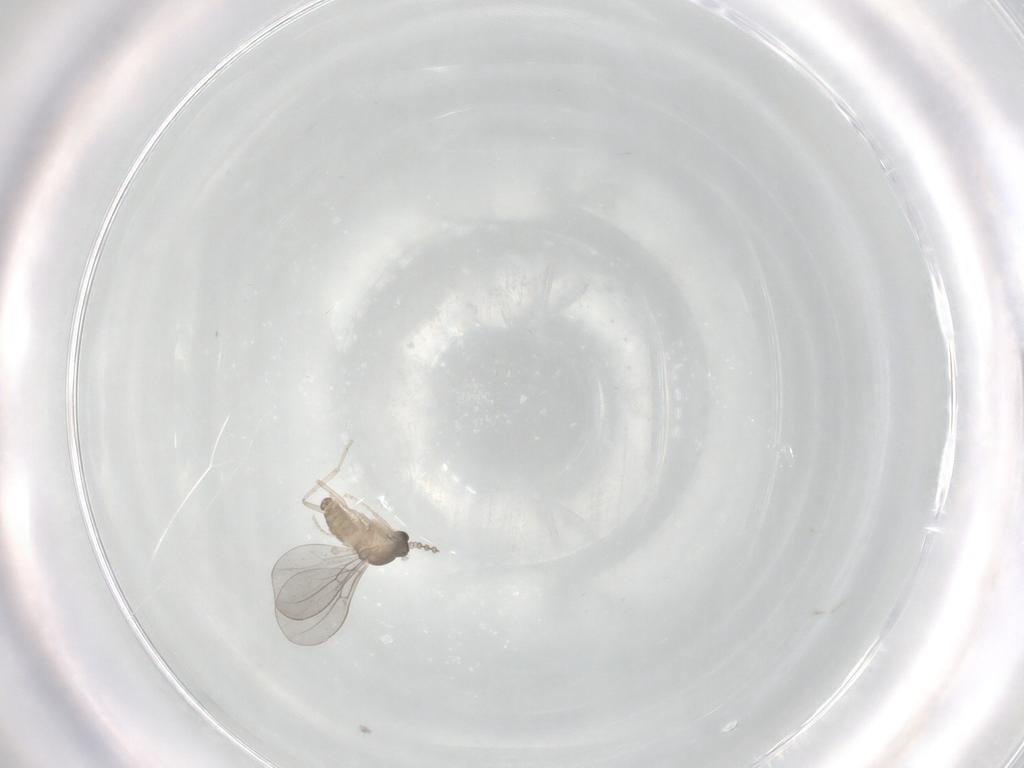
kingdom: Animalia
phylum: Arthropoda
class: Insecta
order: Diptera
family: Cecidomyiidae
